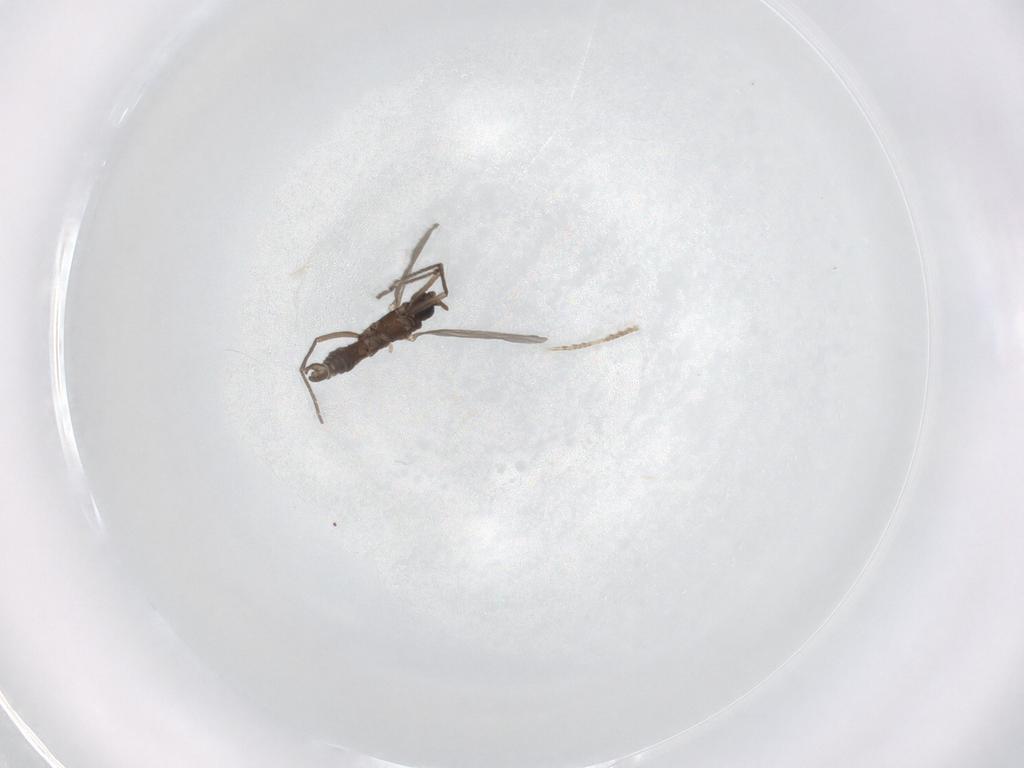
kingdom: Animalia
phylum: Arthropoda
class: Insecta
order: Diptera
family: Sciaridae
